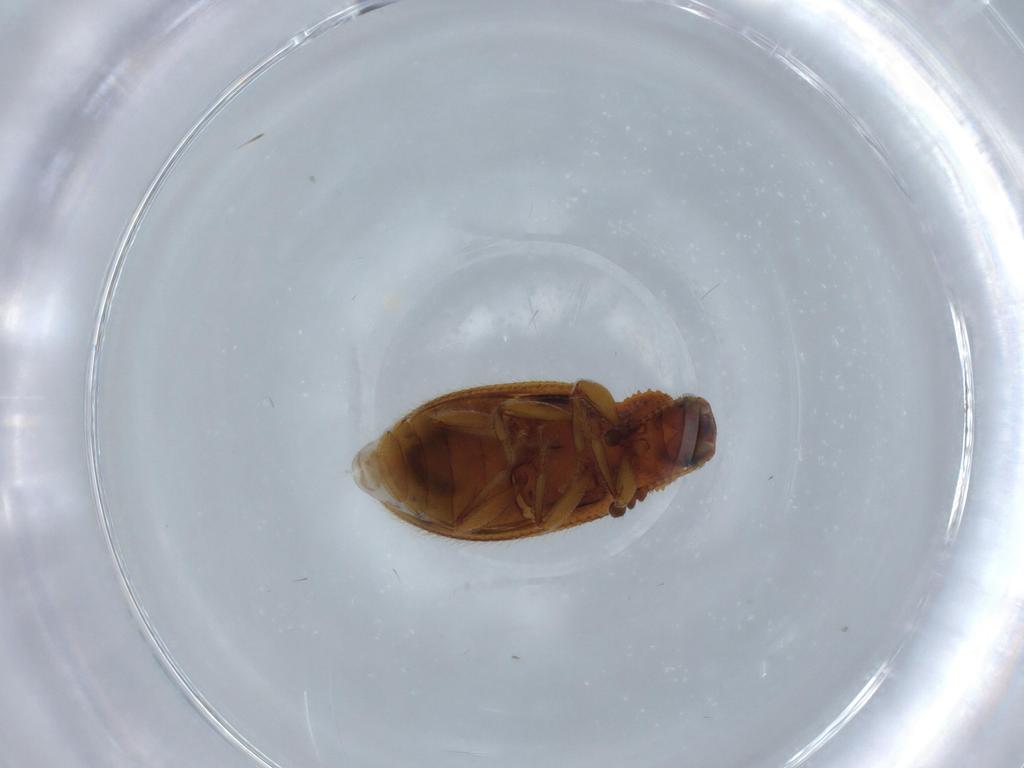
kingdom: Animalia
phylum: Arthropoda
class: Insecta
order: Coleoptera
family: Tenebrionidae
